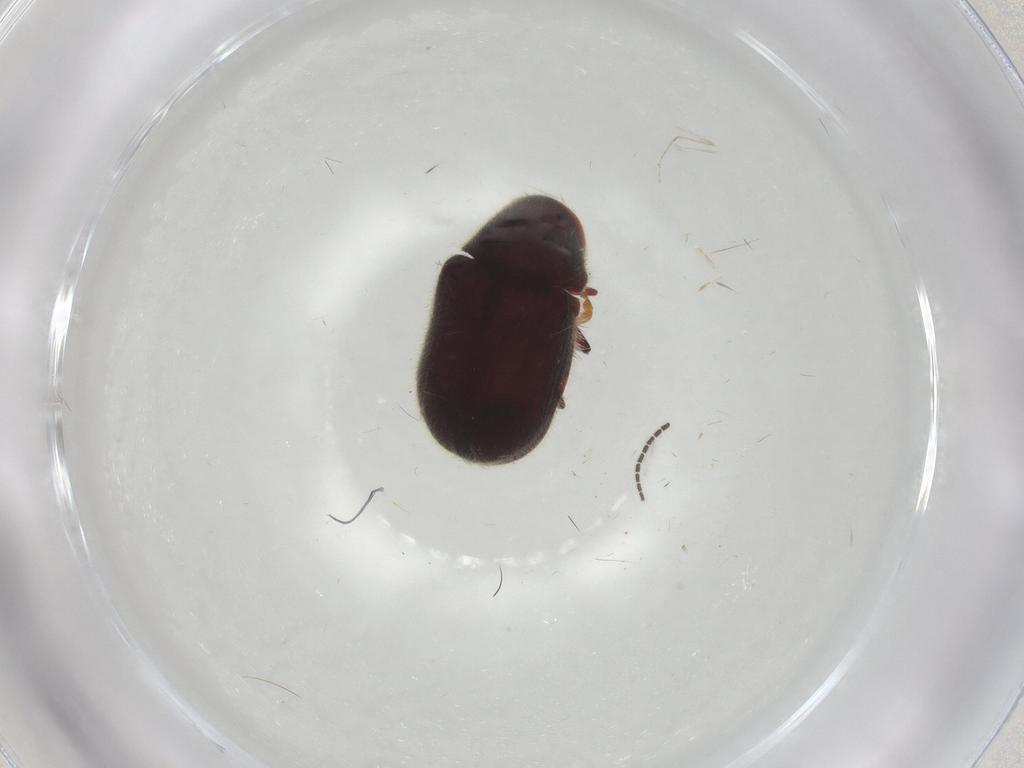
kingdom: Animalia
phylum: Arthropoda
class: Insecta
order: Coleoptera
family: Ptinidae
